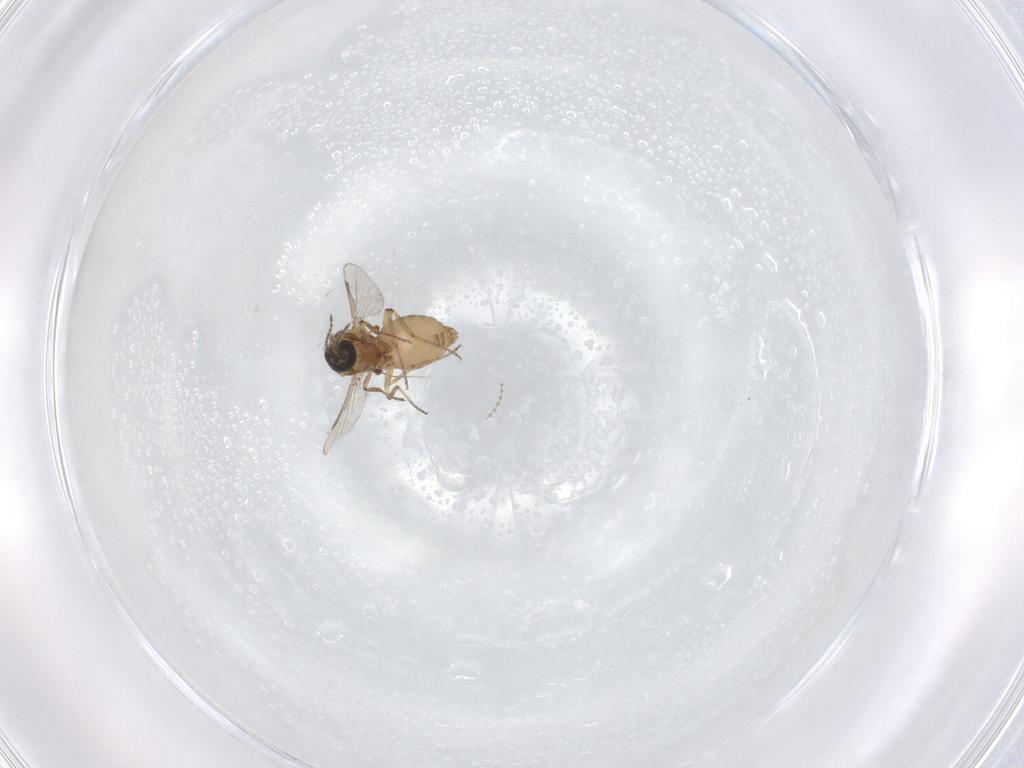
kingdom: Animalia
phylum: Arthropoda
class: Insecta
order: Diptera
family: Ceratopogonidae
